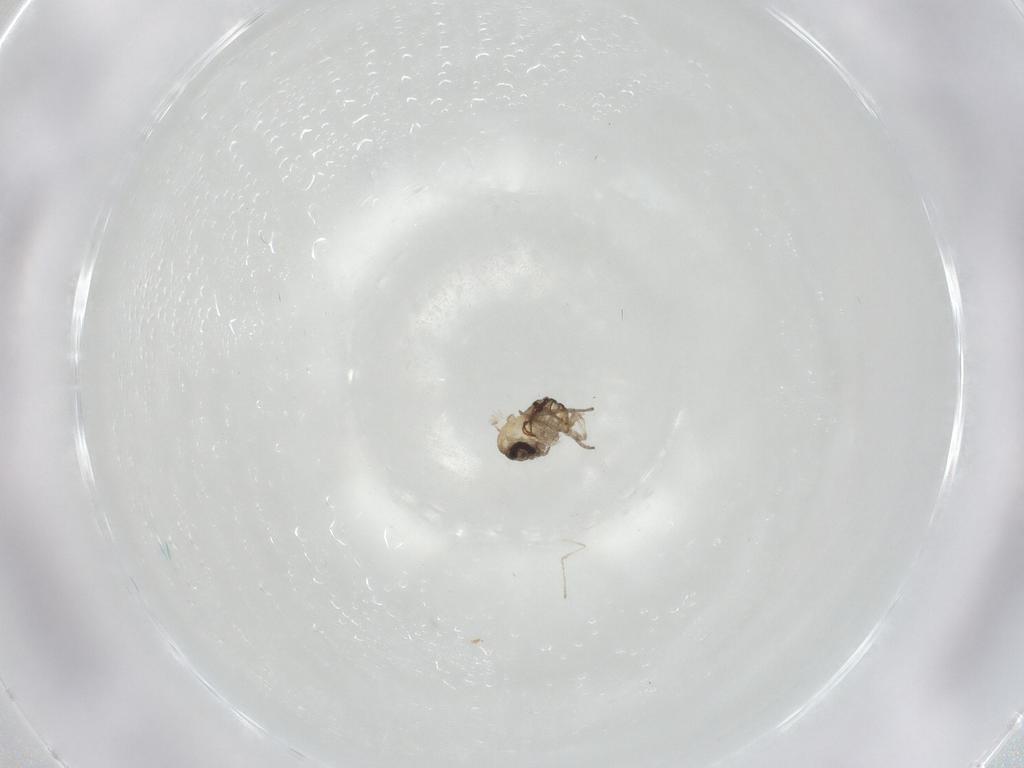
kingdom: Animalia
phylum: Arthropoda
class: Insecta
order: Diptera
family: Psychodidae
